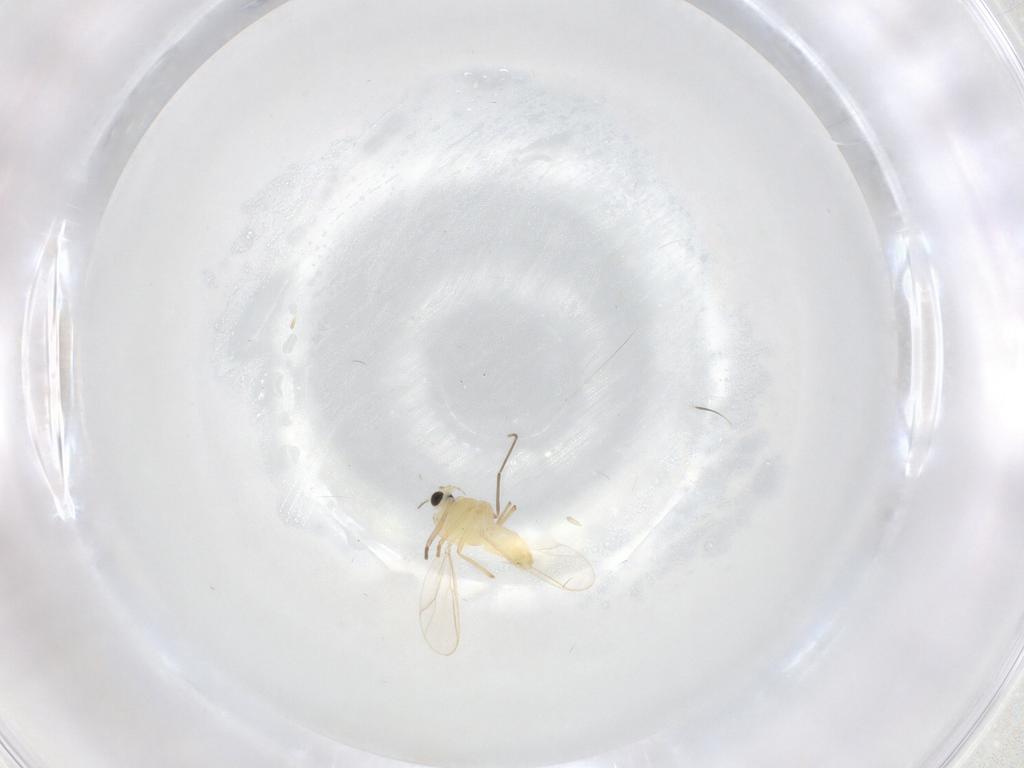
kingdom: Animalia
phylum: Arthropoda
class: Insecta
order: Diptera
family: Chironomidae
